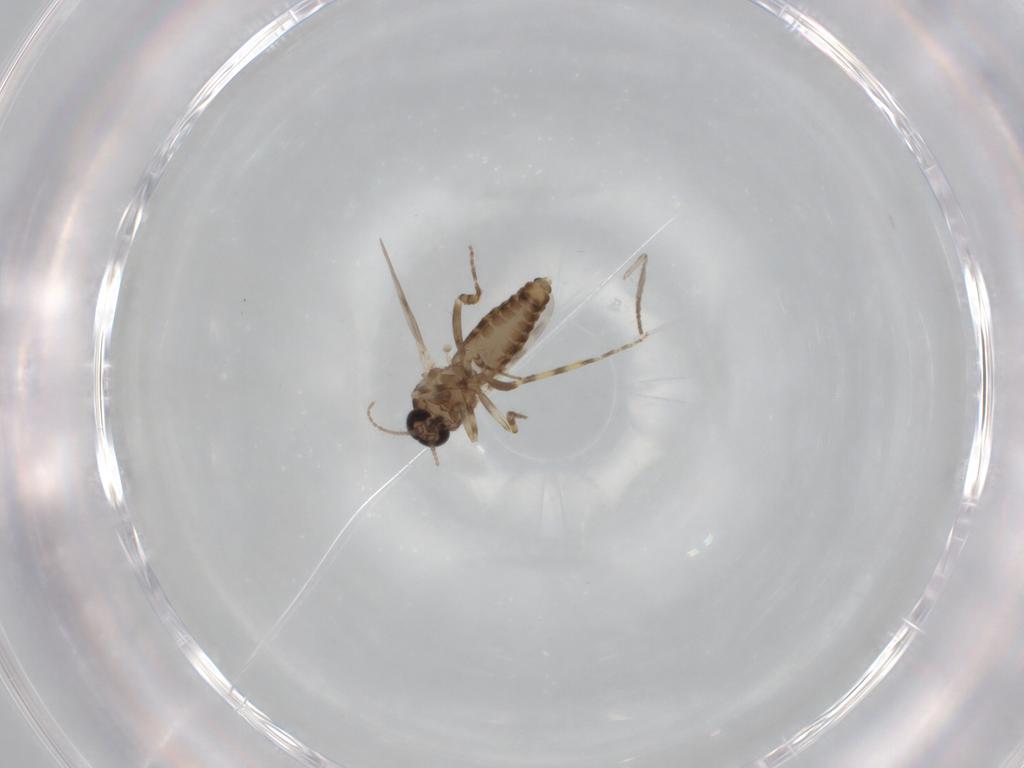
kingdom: Animalia
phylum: Arthropoda
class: Insecta
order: Diptera
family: Ceratopogonidae
